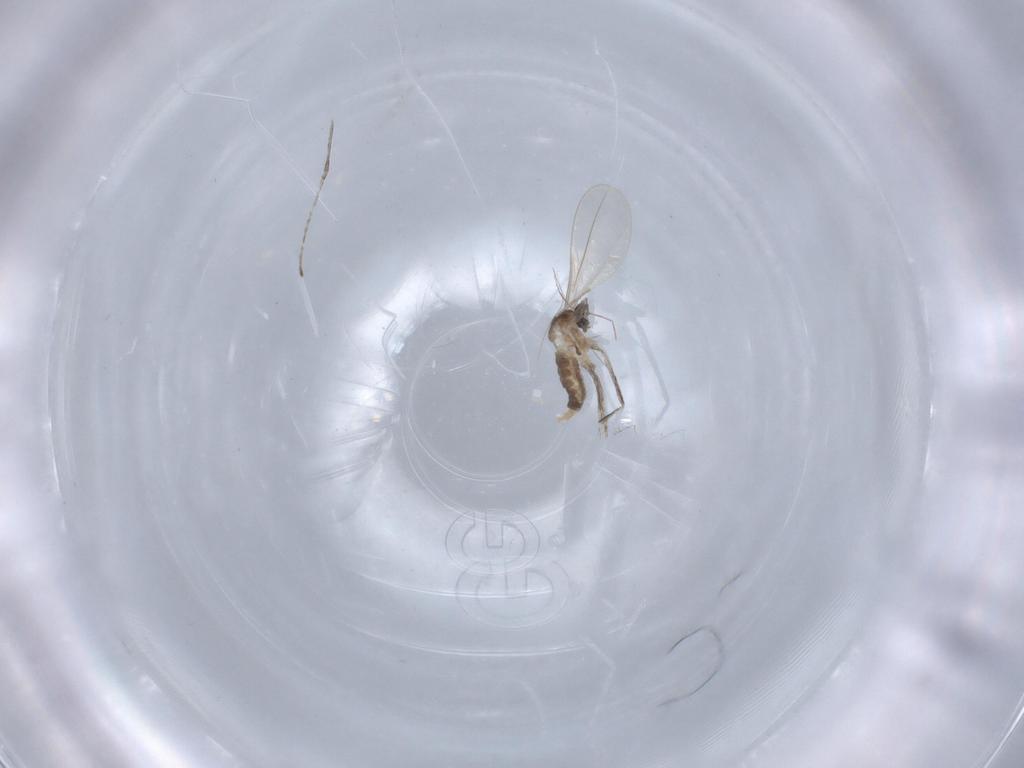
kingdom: Animalia
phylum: Arthropoda
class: Insecta
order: Diptera
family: Cecidomyiidae
